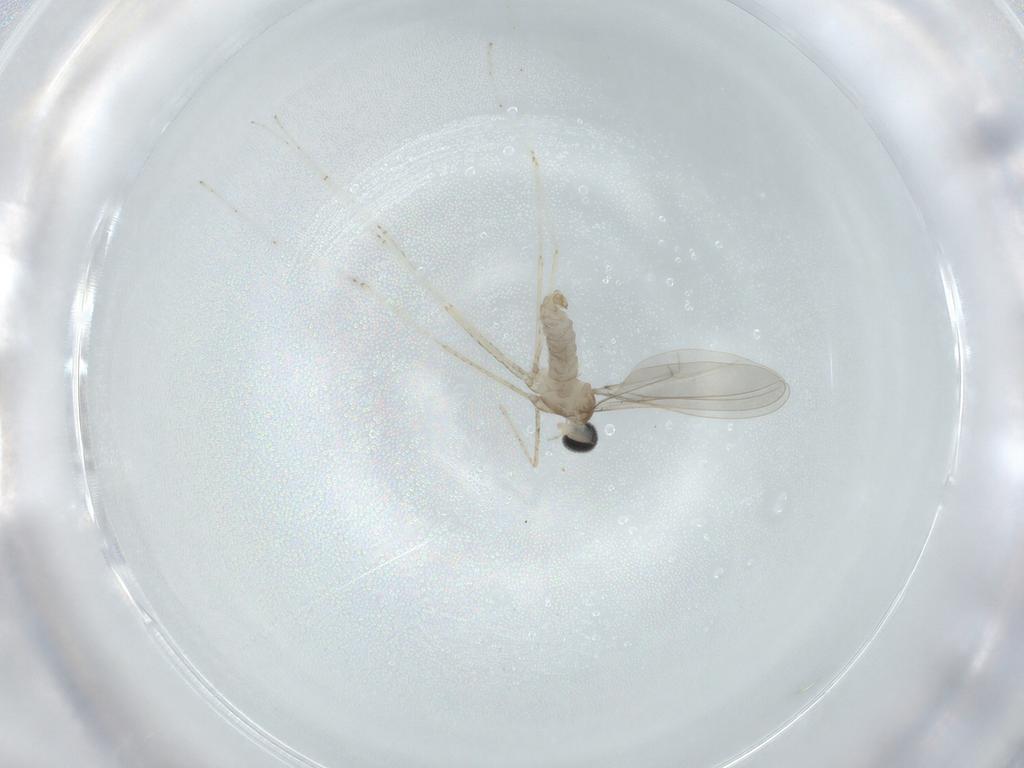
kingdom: Animalia
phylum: Arthropoda
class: Insecta
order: Diptera
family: Cecidomyiidae
